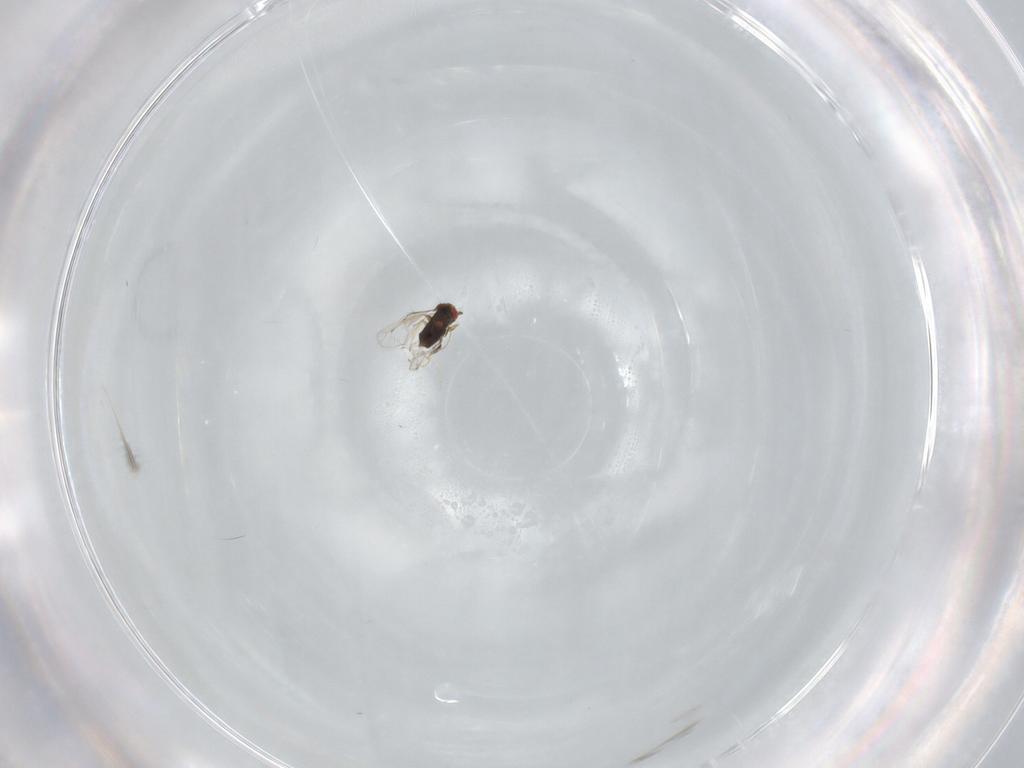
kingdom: Animalia
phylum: Arthropoda
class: Insecta
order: Hymenoptera
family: Trichogrammatidae
